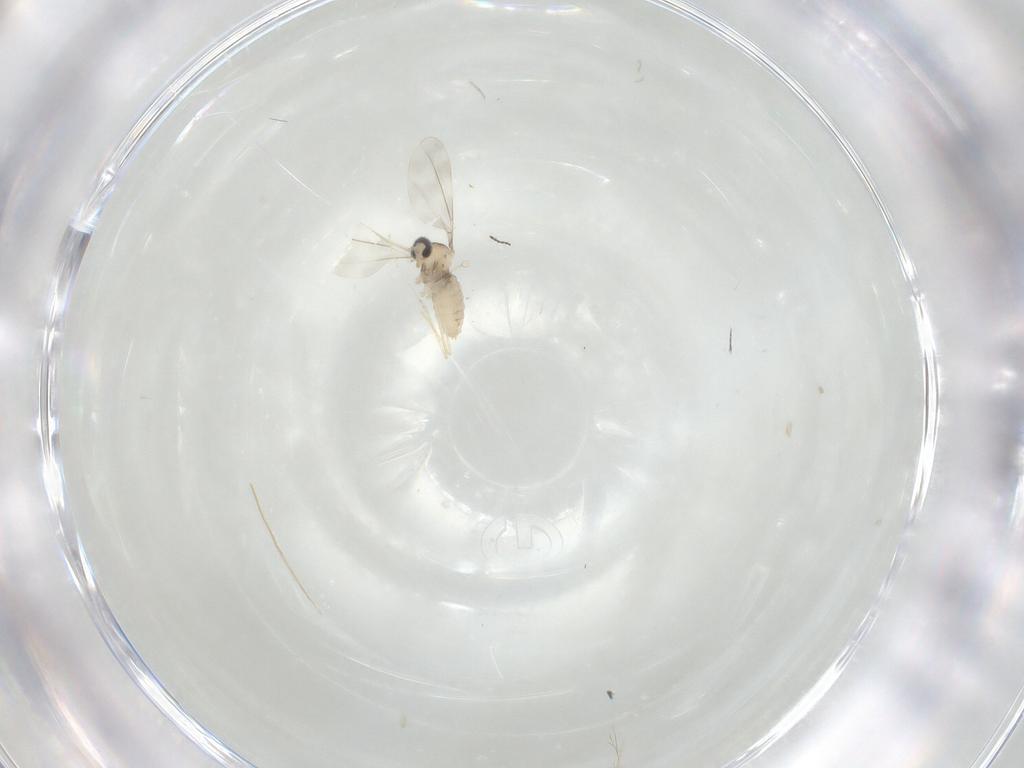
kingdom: Animalia
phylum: Arthropoda
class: Insecta
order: Diptera
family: Ceratopogonidae
